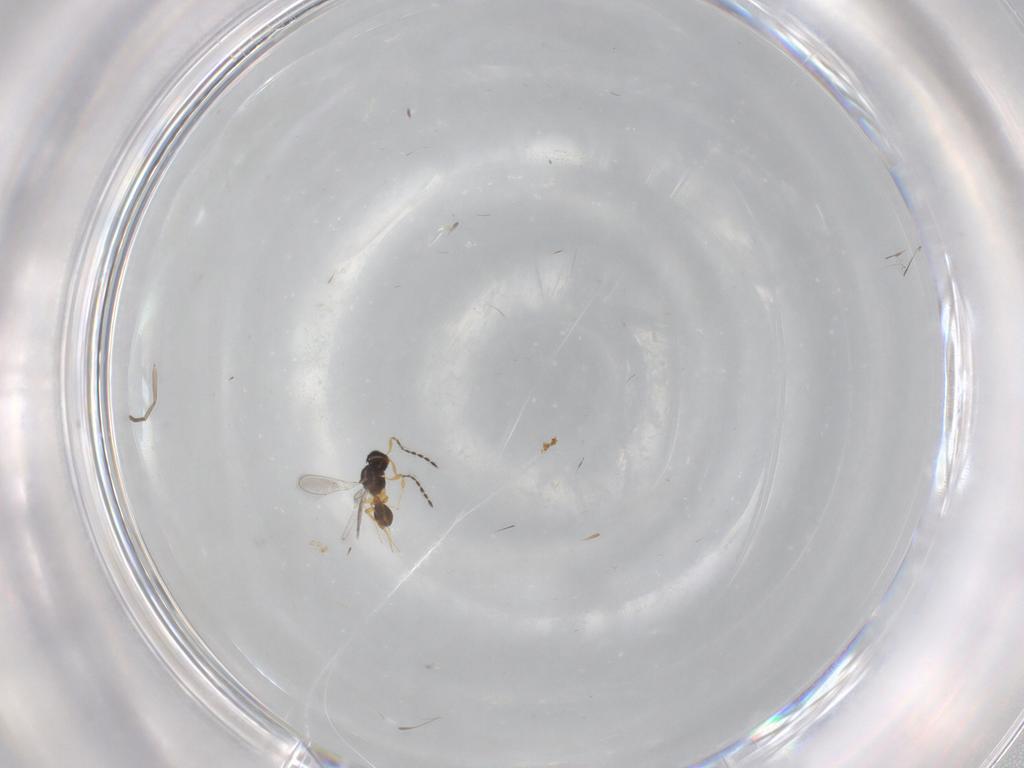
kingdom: Animalia
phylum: Arthropoda
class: Insecta
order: Hymenoptera
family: Platygastridae
